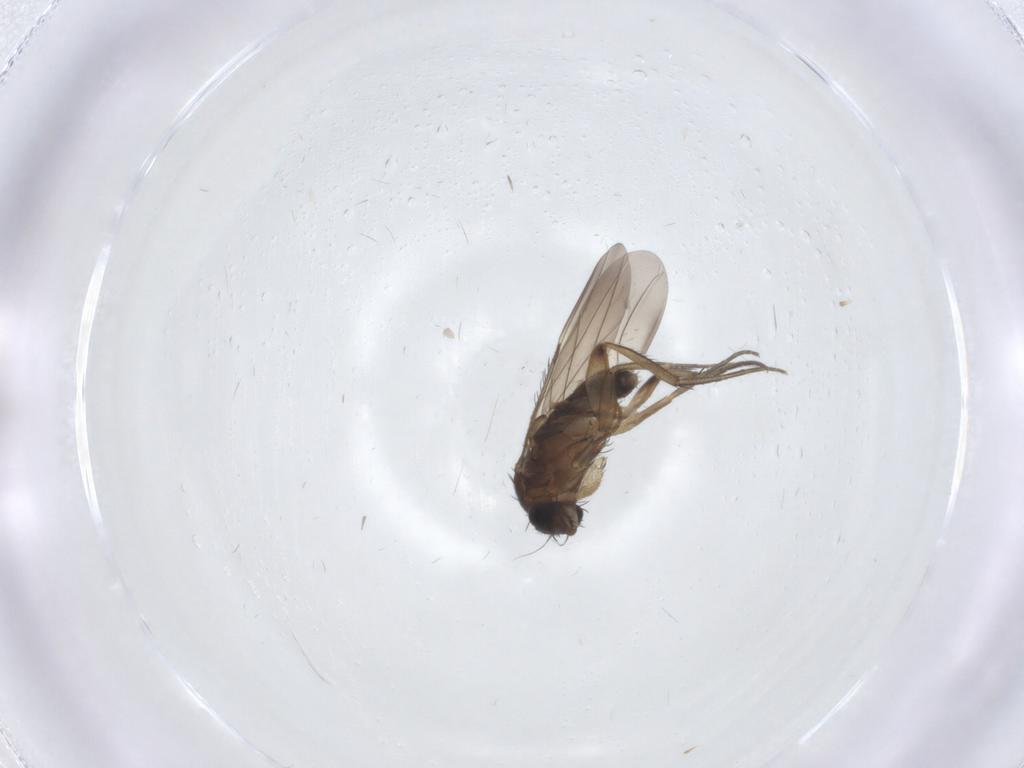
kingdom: Animalia
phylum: Arthropoda
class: Insecta
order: Diptera
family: Phoridae
